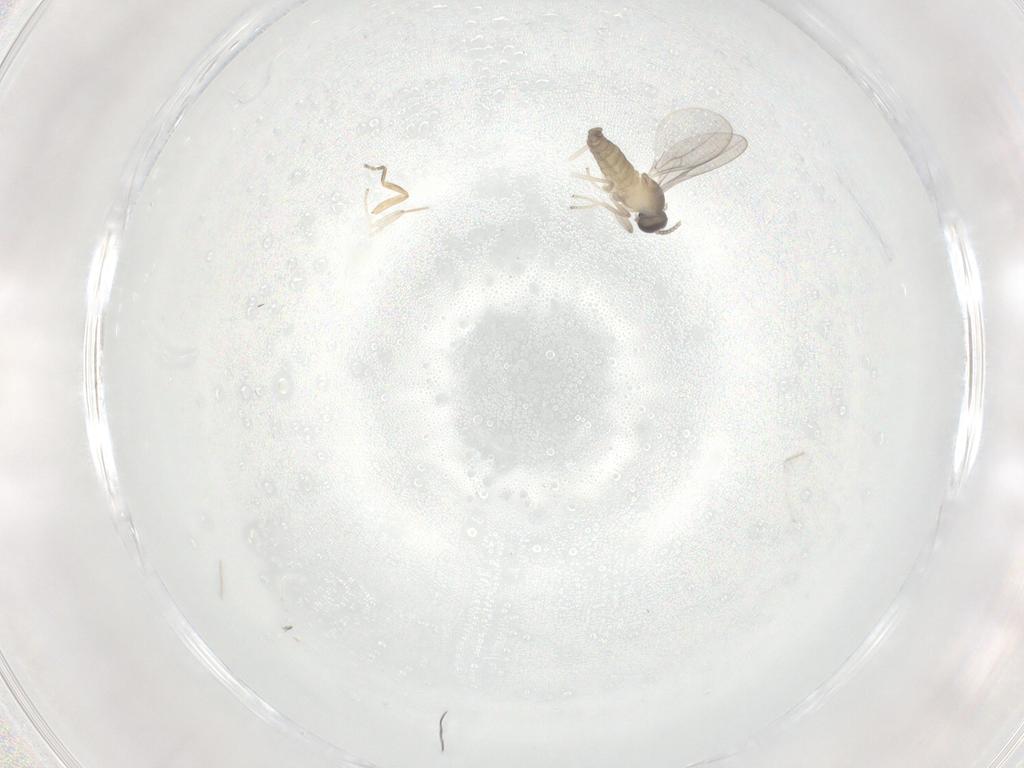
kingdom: Animalia
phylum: Arthropoda
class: Insecta
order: Diptera
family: Cecidomyiidae
